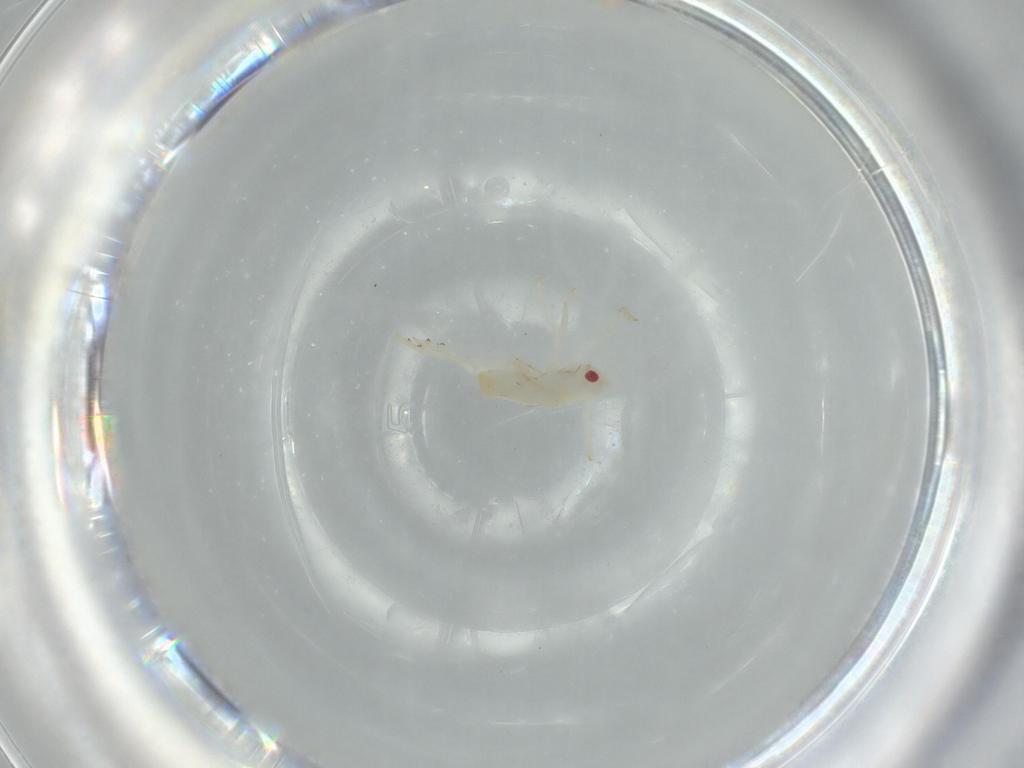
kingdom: Animalia
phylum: Arthropoda
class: Insecta
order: Hemiptera
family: Flatidae
